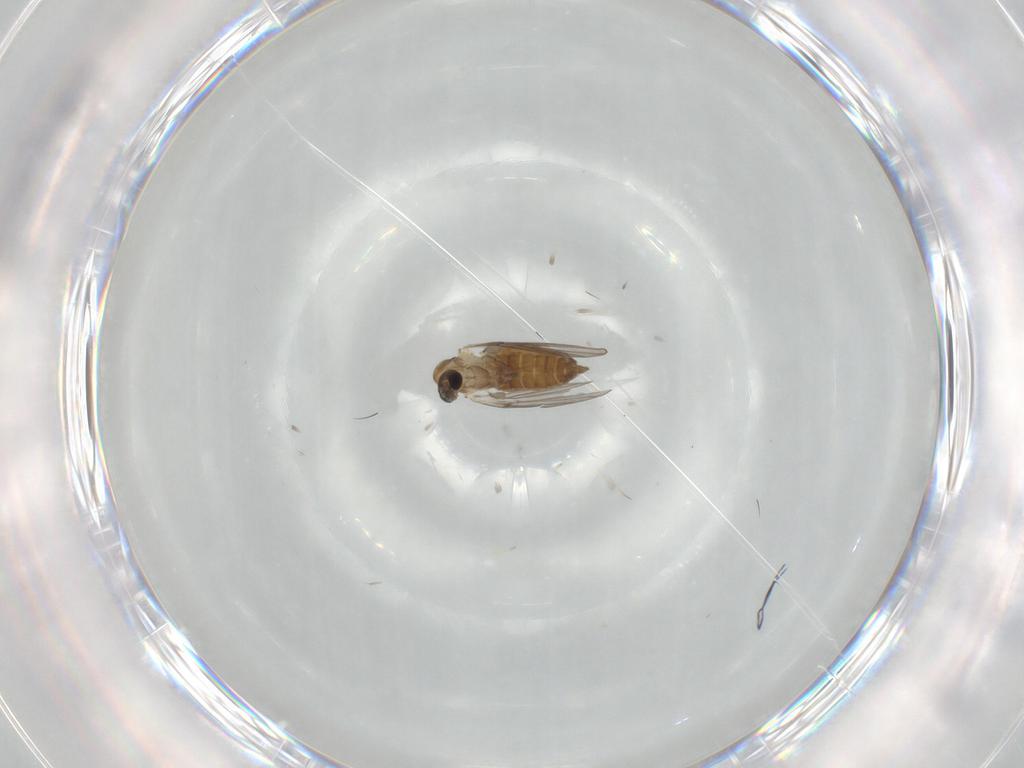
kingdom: Animalia
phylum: Arthropoda
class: Insecta
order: Diptera
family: Psychodidae
